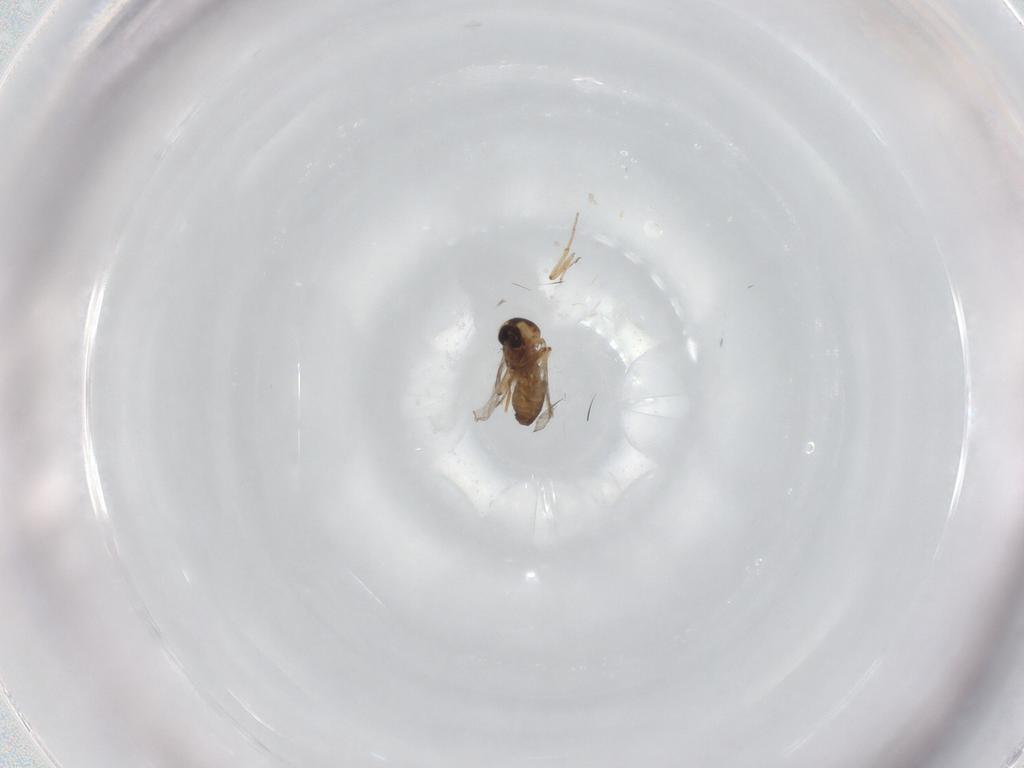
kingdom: Animalia
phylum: Arthropoda
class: Insecta
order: Diptera
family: Ceratopogonidae
